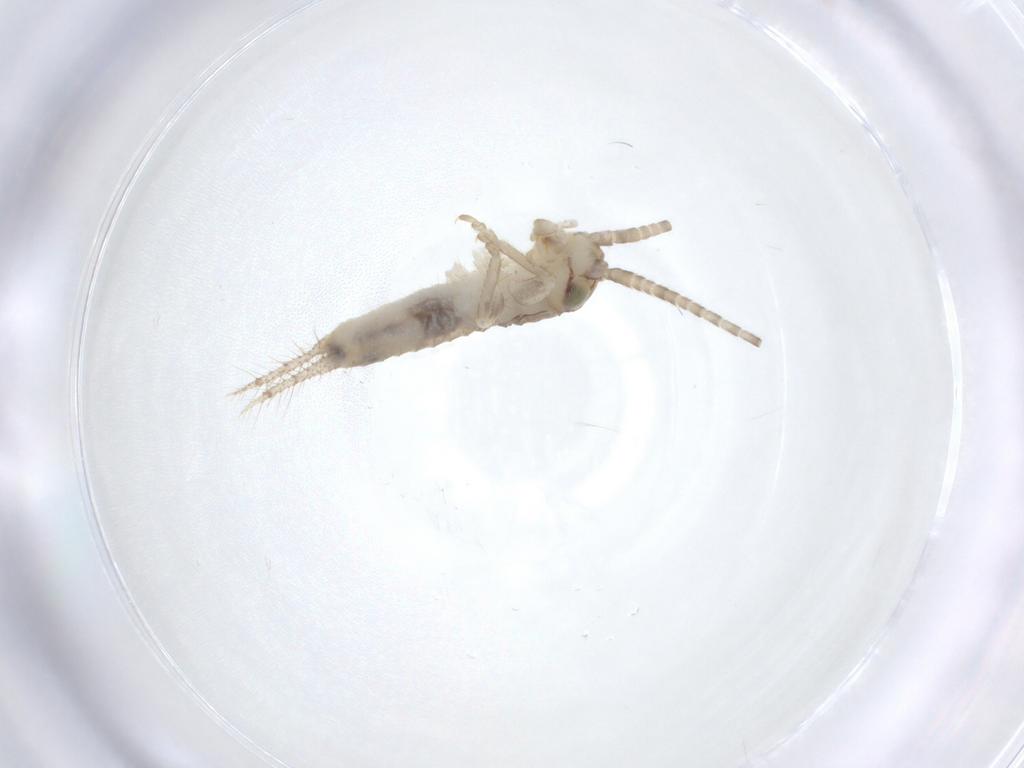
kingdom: Animalia
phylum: Arthropoda
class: Insecta
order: Orthoptera
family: Gryllidae
